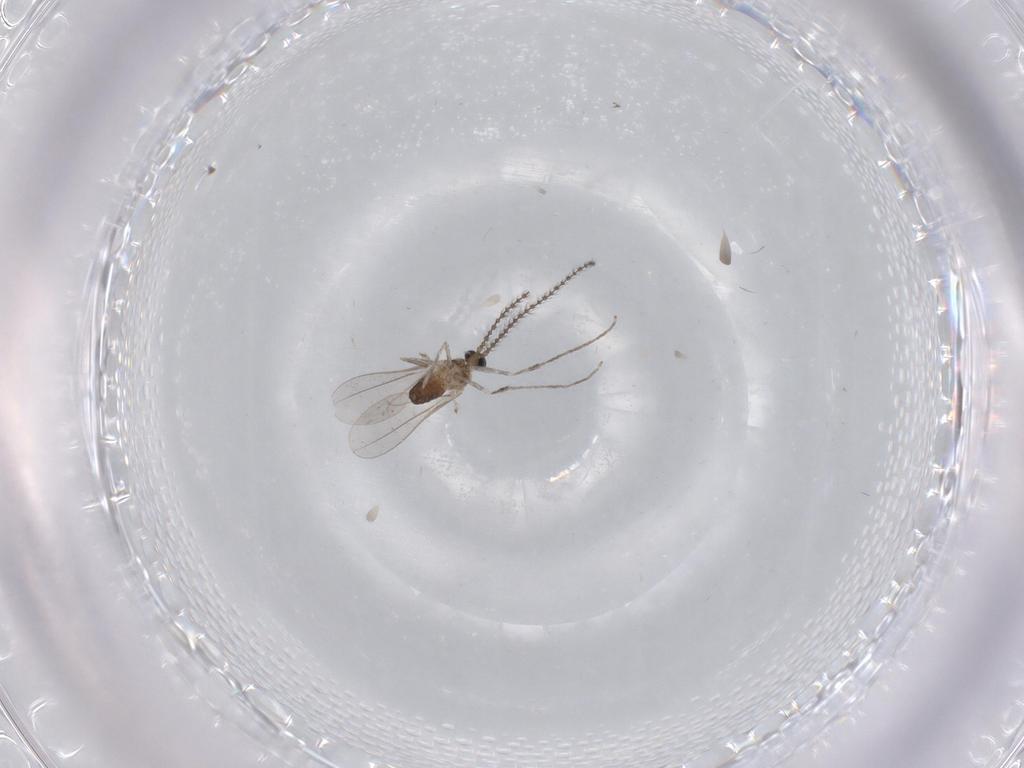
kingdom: Animalia
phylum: Arthropoda
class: Insecta
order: Diptera
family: Cecidomyiidae
